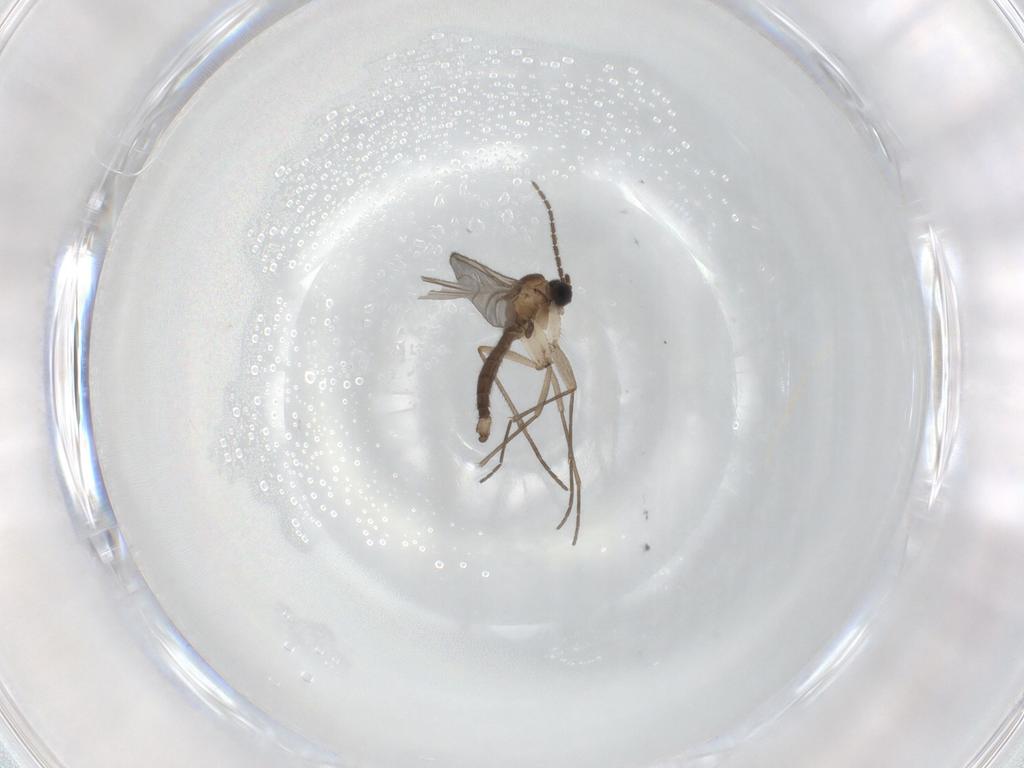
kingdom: Animalia
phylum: Arthropoda
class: Insecta
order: Diptera
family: Sciaridae
